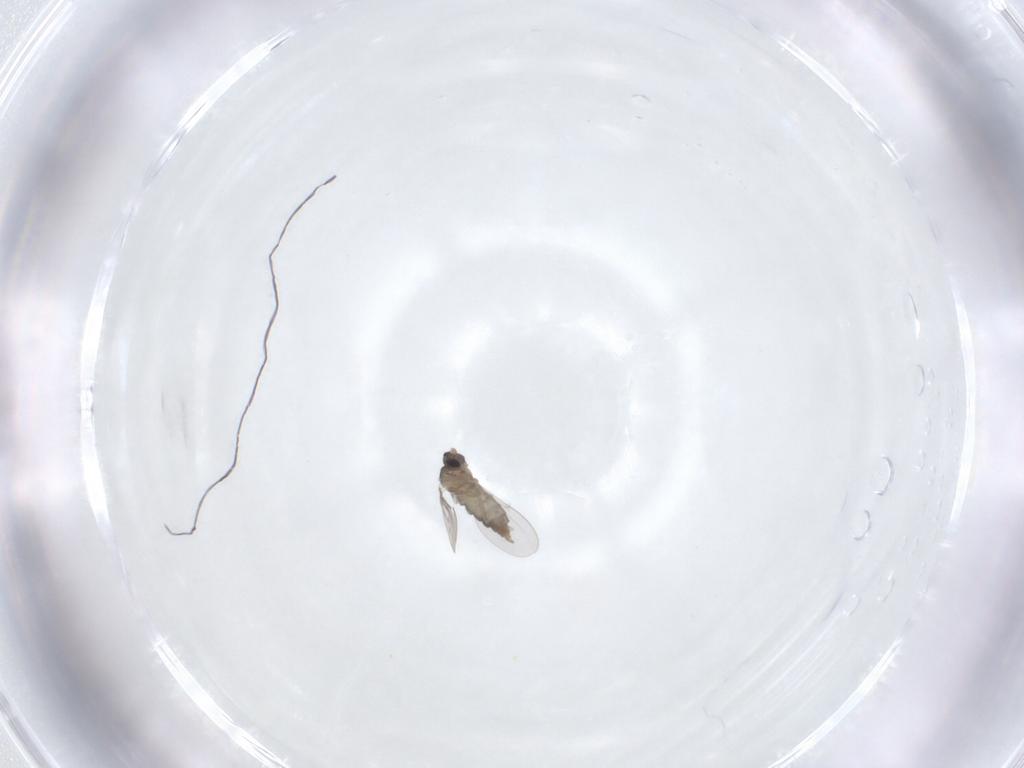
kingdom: Animalia
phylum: Arthropoda
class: Insecta
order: Diptera
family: Cecidomyiidae
